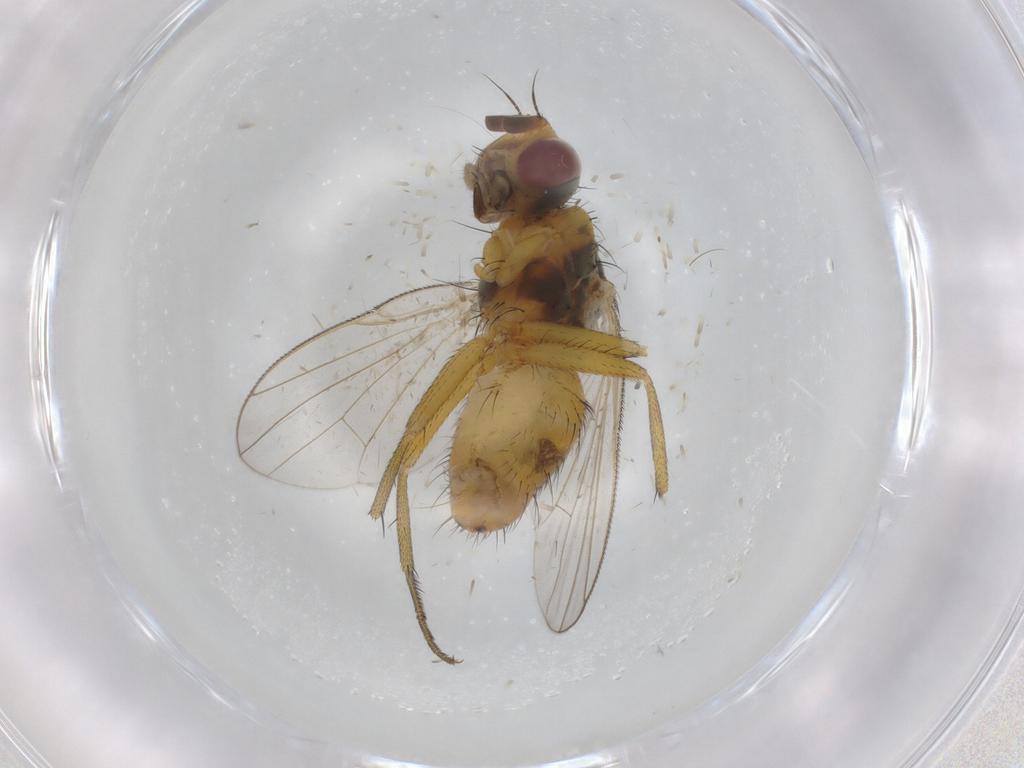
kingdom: Animalia
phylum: Arthropoda
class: Insecta
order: Diptera
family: Muscidae
